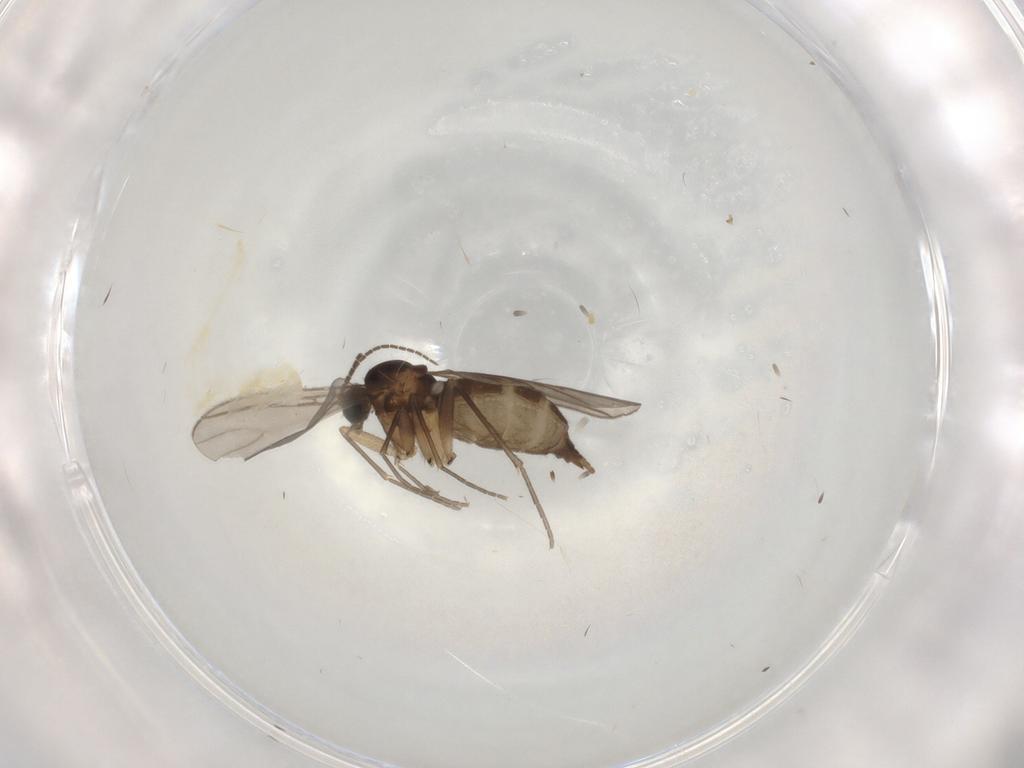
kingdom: Animalia
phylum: Arthropoda
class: Insecta
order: Diptera
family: Sciaridae
